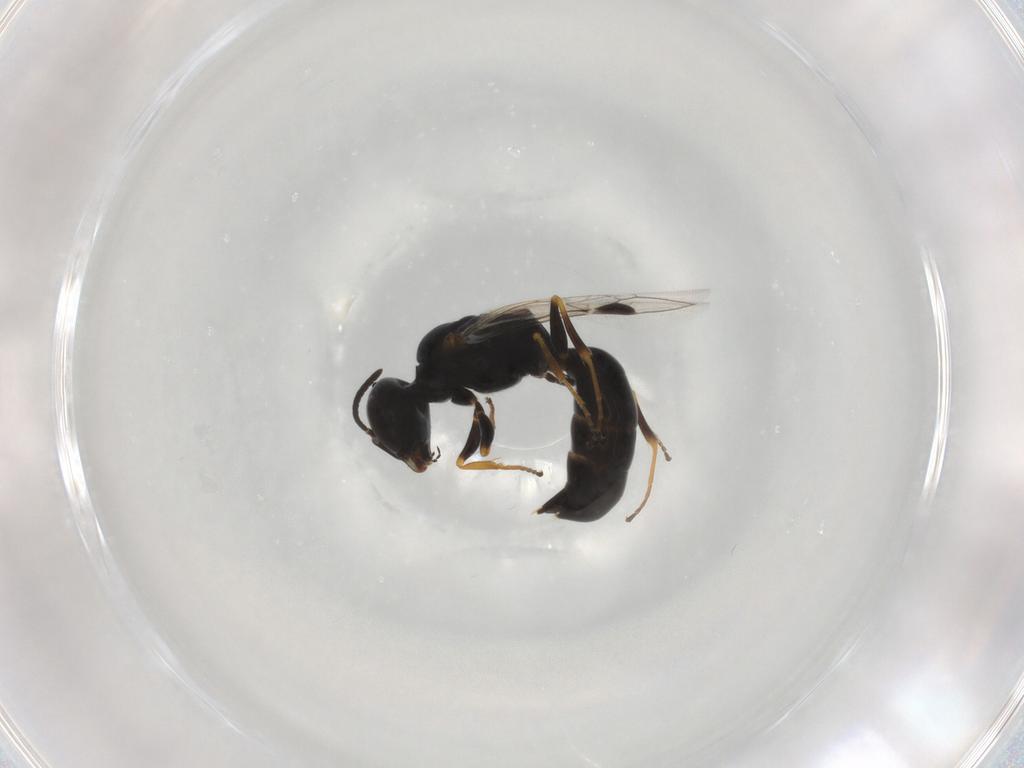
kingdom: Animalia
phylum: Arthropoda
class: Insecta
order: Hymenoptera
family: Crabronidae
